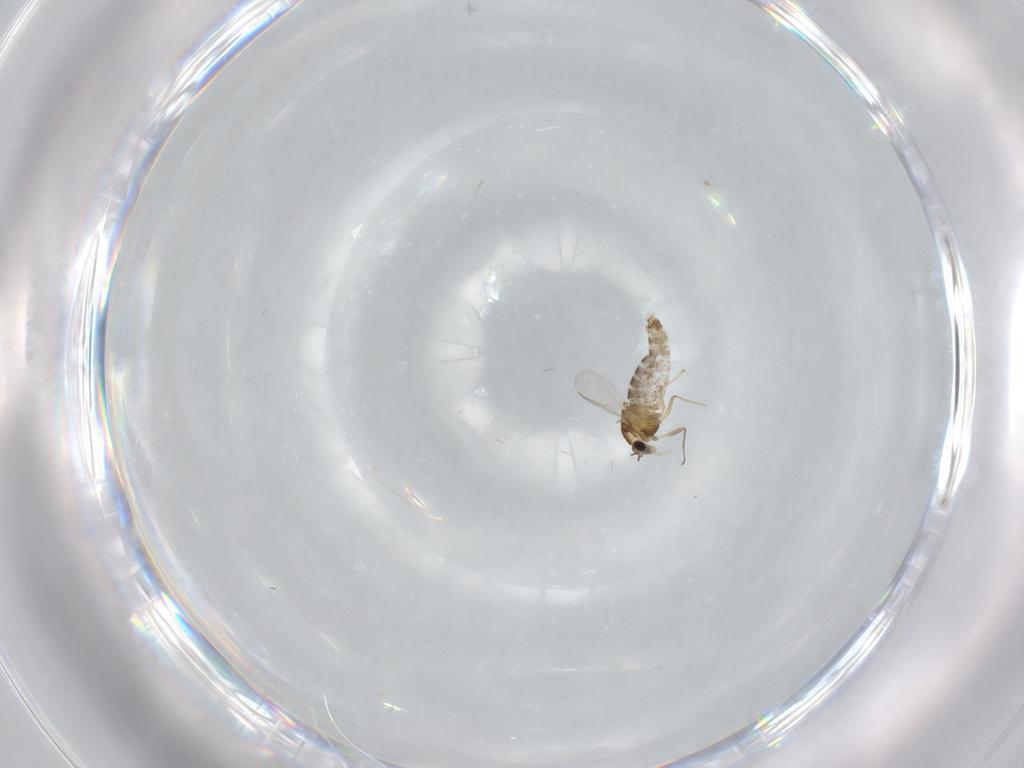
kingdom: Animalia
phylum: Arthropoda
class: Insecta
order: Diptera
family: Chironomidae
